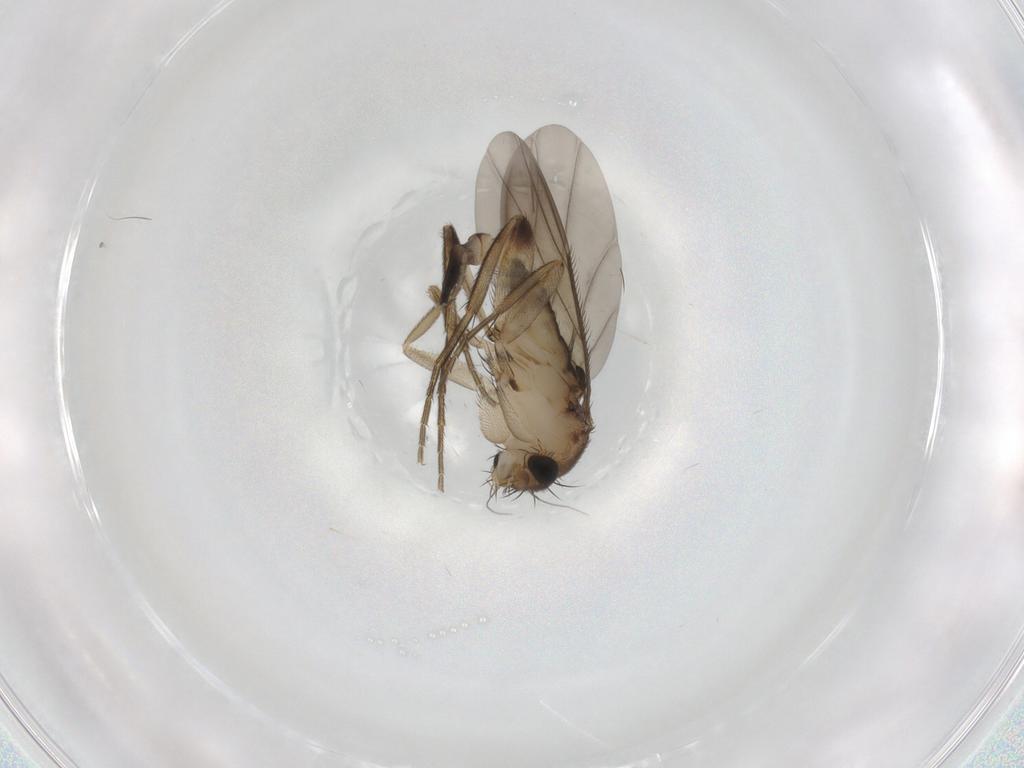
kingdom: Animalia
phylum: Arthropoda
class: Insecta
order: Diptera
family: Phoridae
